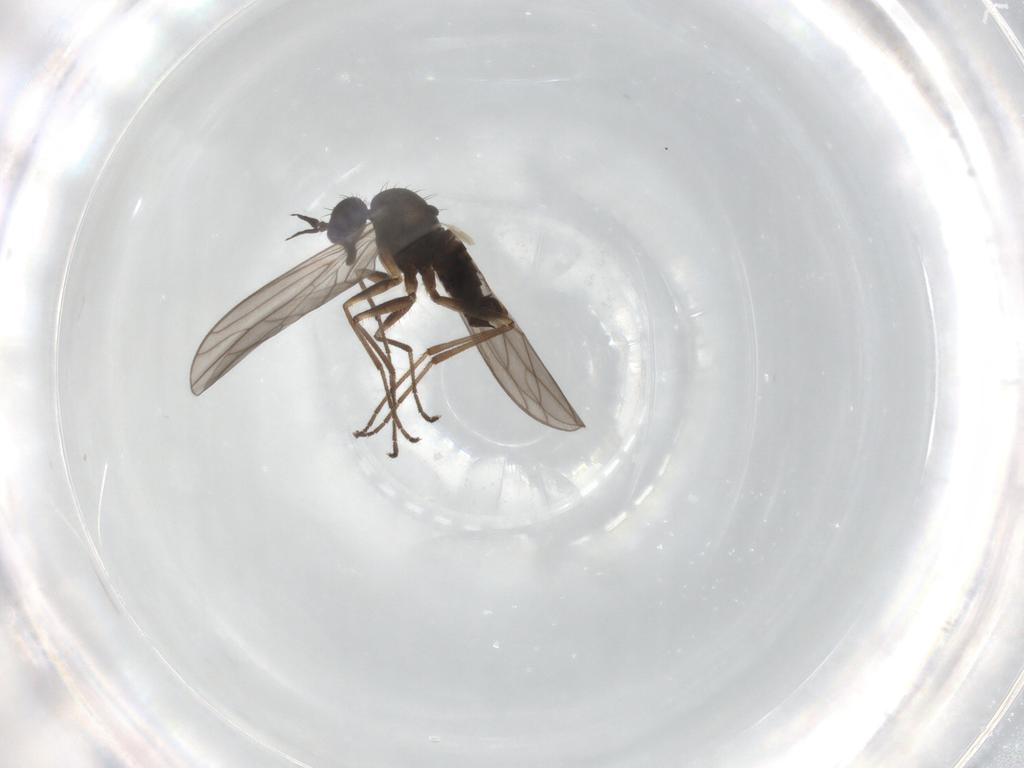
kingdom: Animalia
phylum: Arthropoda
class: Insecta
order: Diptera
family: Empididae
